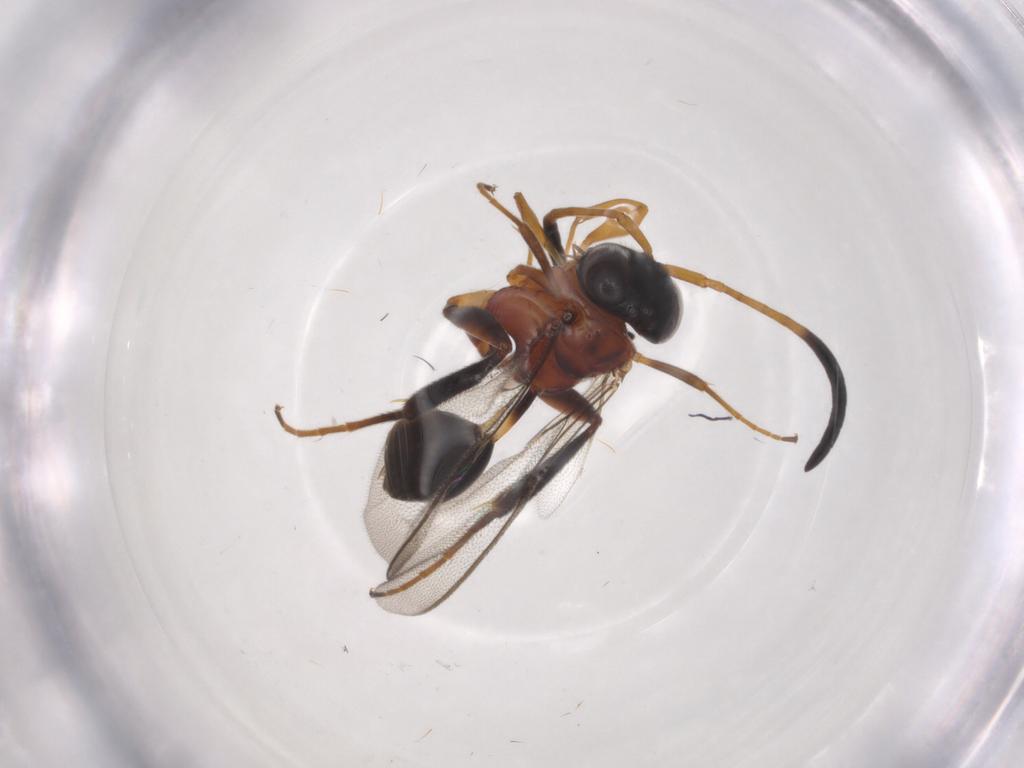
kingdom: Animalia
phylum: Arthropoda
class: Insecta
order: Hymenoptera
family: Evaniidae
